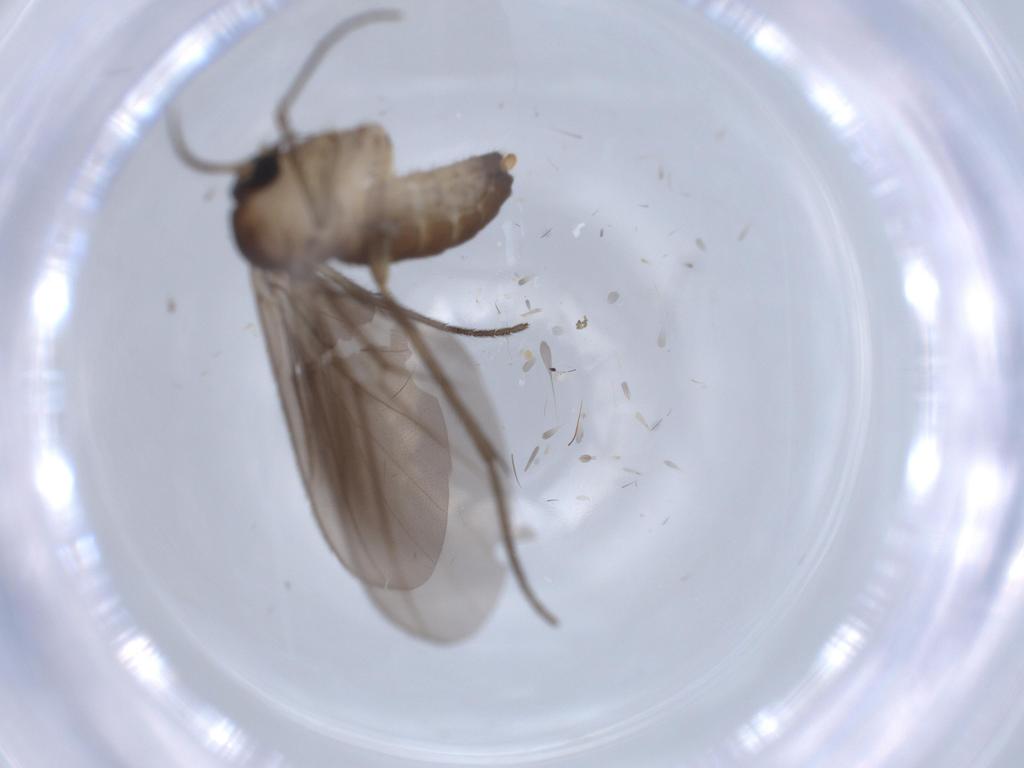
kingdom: Animalia
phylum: Arthropoda
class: Insecta
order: Diptera
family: Diadocidiidae
